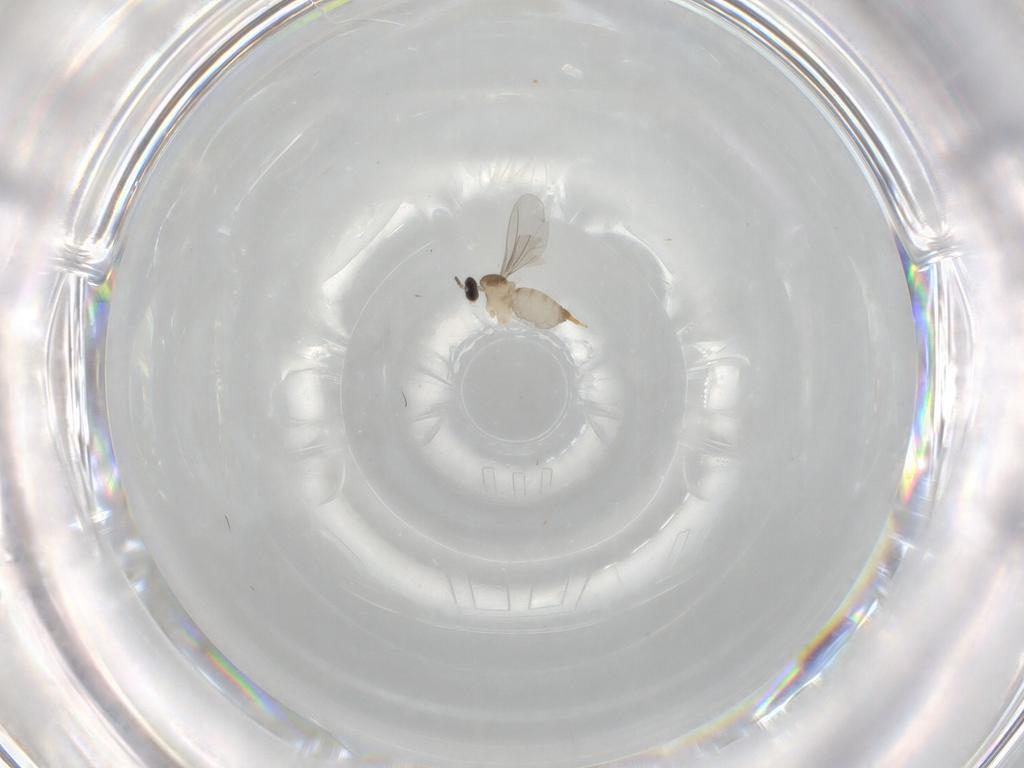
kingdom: Animalia
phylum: Arthropoda
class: Insecta
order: Diptera
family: Cecidomyiidae
